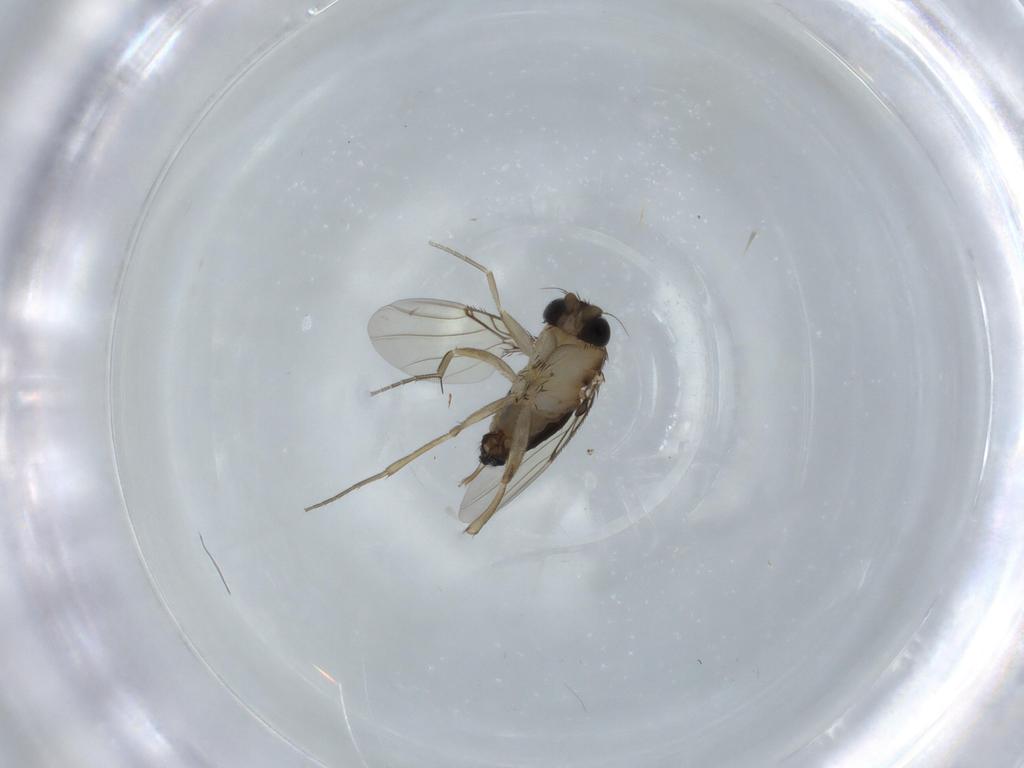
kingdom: Animalia
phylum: Arthropoda
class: Insecta
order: Diptera
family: Phoridae
